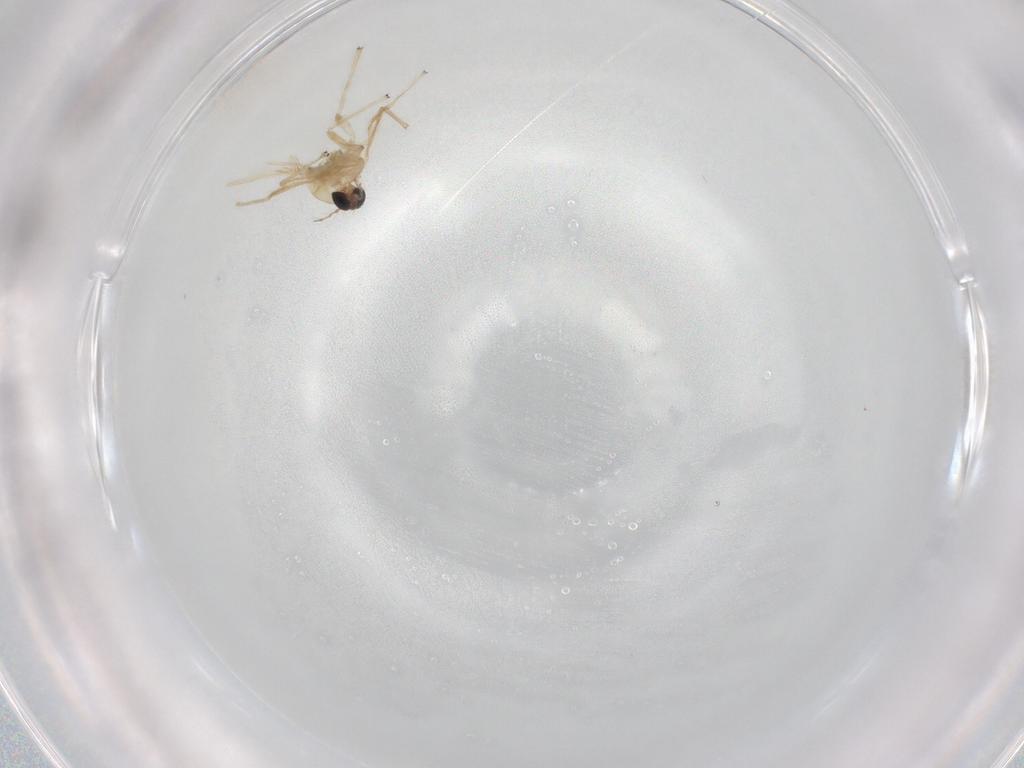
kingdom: Animalia
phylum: Arthropoda
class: Insecta
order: Diptera
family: Chironomidae
